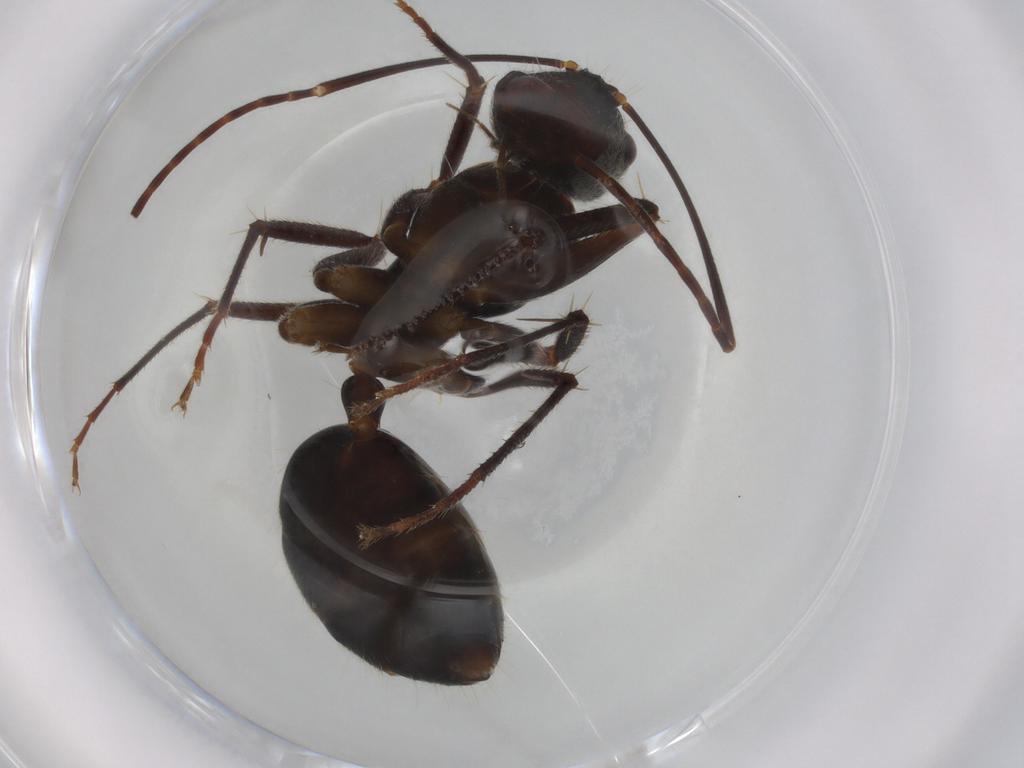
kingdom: Animalia
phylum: Arthropoda
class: Insecta
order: Hymenoptera
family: Formicidae
